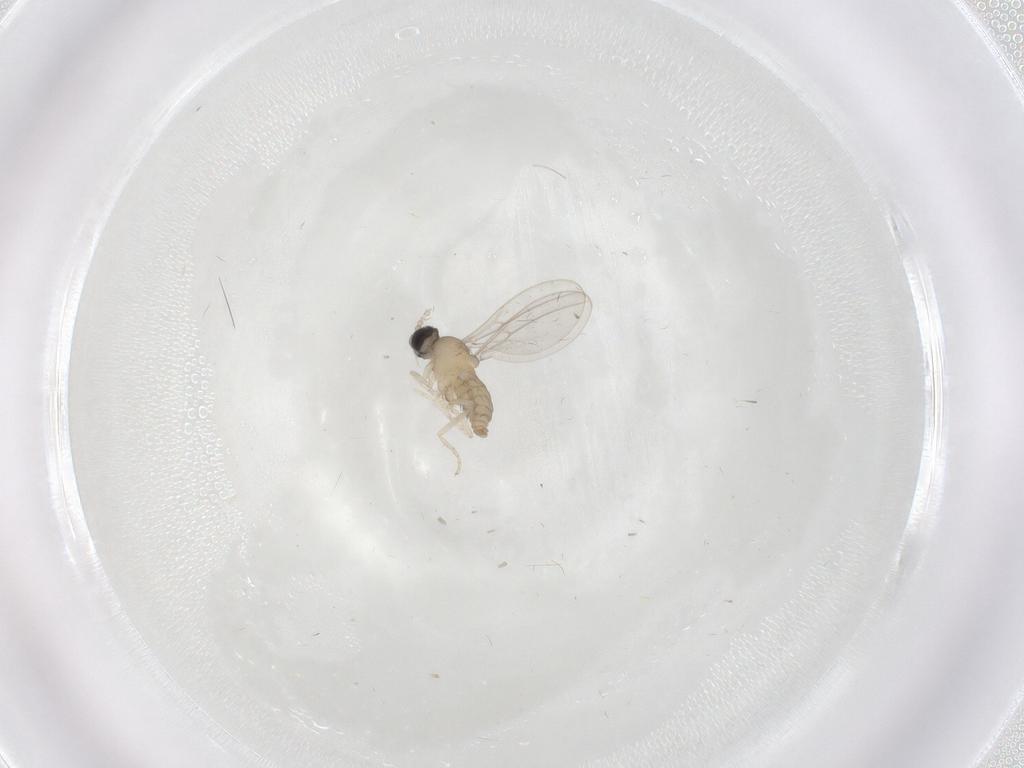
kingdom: Animalia
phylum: Arthropoda
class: Insecta
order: Diptera
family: Cecidomyiidae
